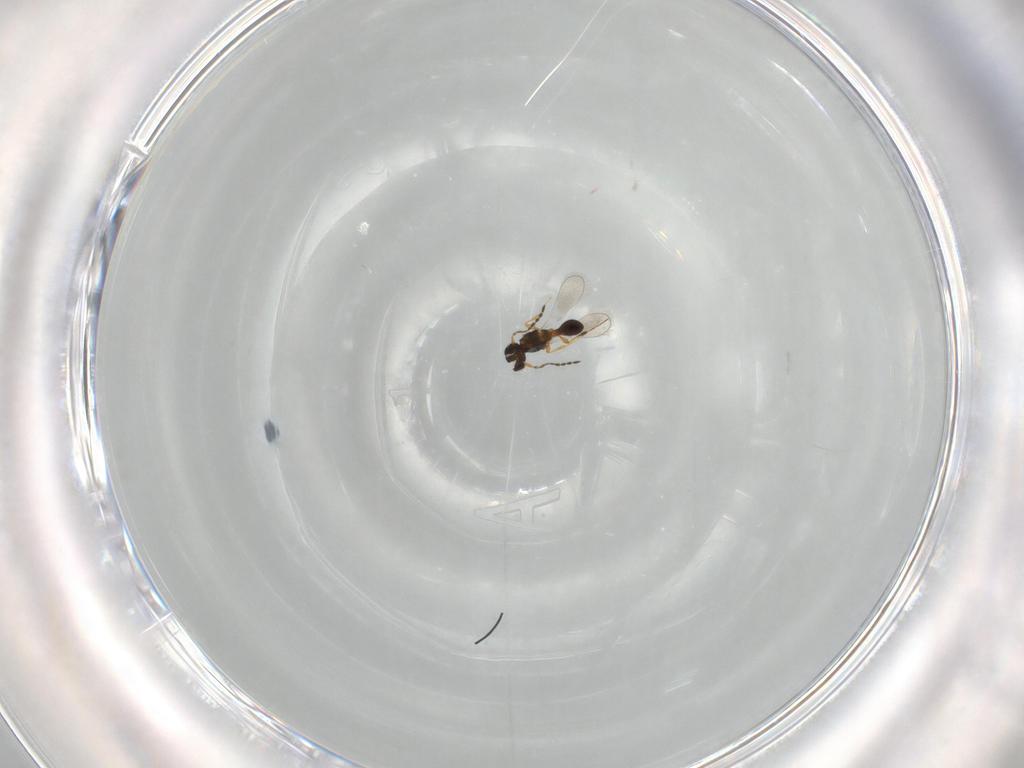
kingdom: Animalia
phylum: Arthropoda
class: Insecta
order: Hymenoptera
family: Platygastridae
